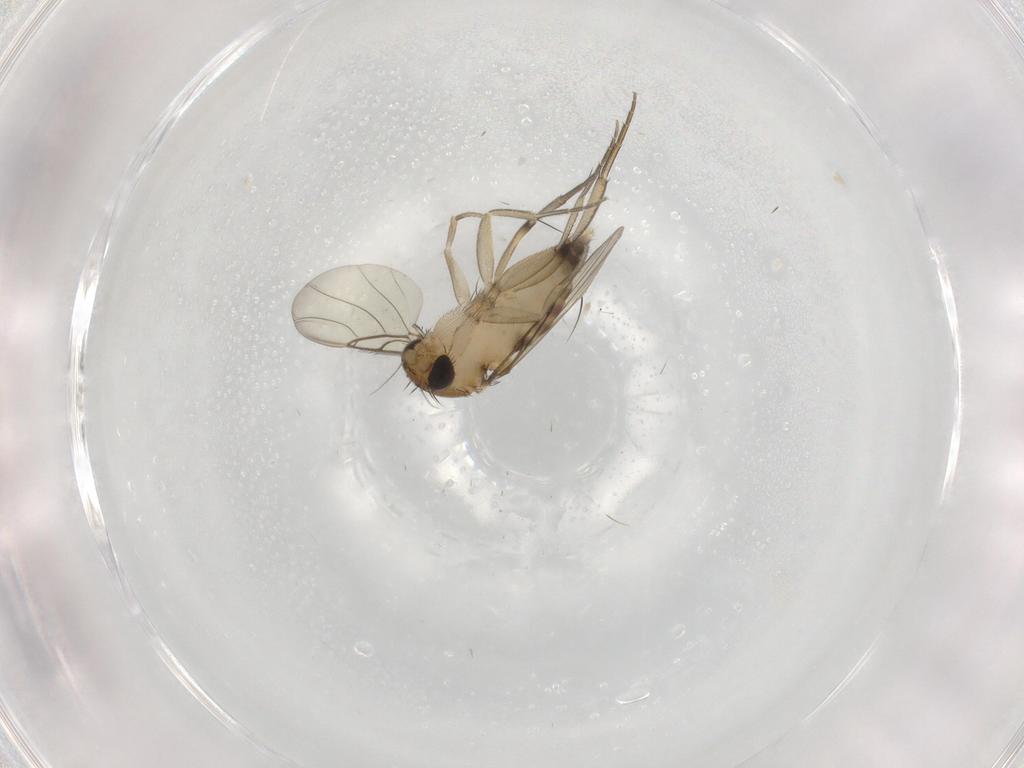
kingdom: Animalia
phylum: Arthropoda
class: Insecta
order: Diptera
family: Phoridae
